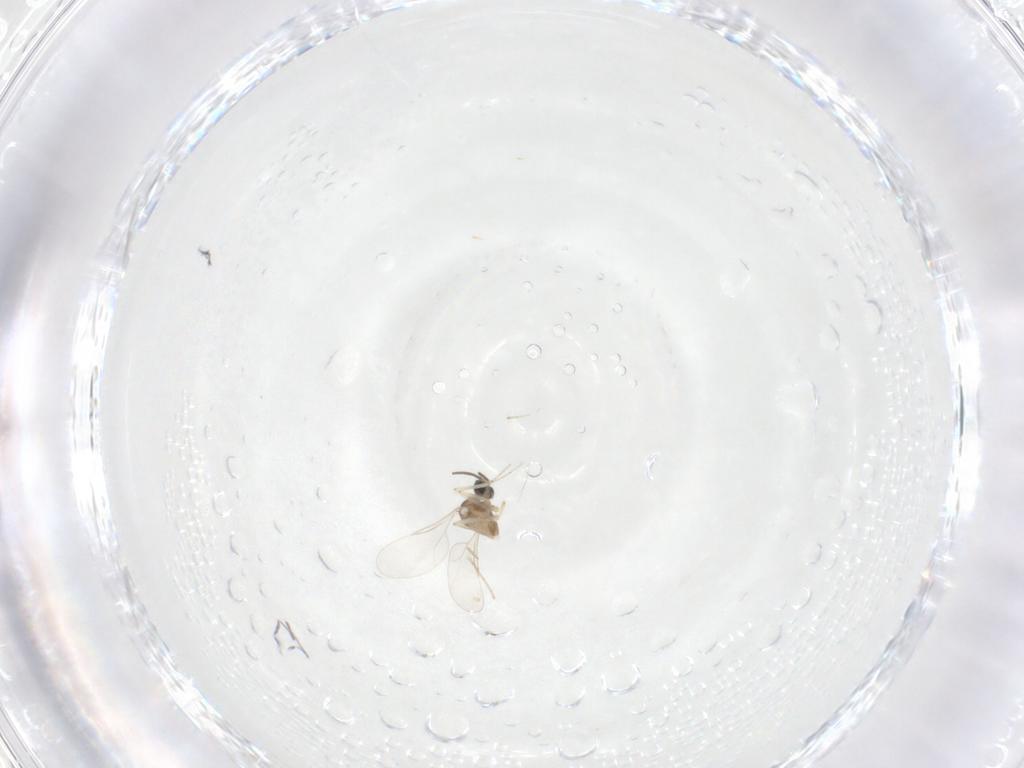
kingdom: Animalia
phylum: Arthropoda
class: Insecta
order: Diptera
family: Cecidomyiidae
